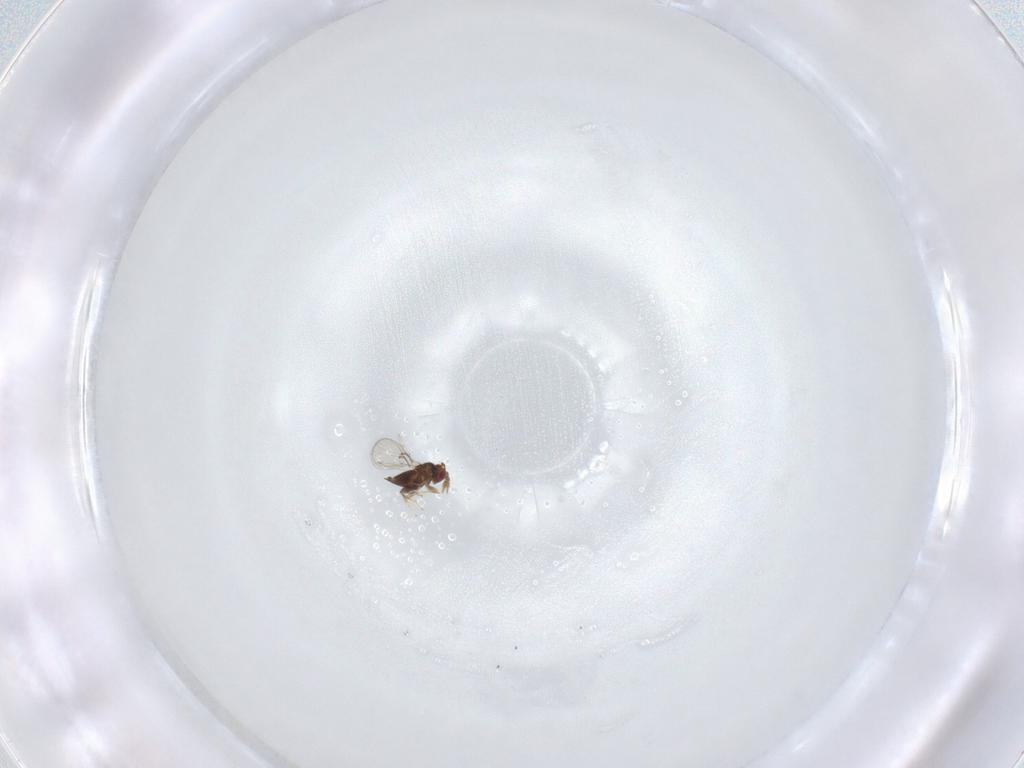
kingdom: Animalia
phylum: Arthropoda
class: Insecta
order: Hymenoptera
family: Trichogrammatidae
